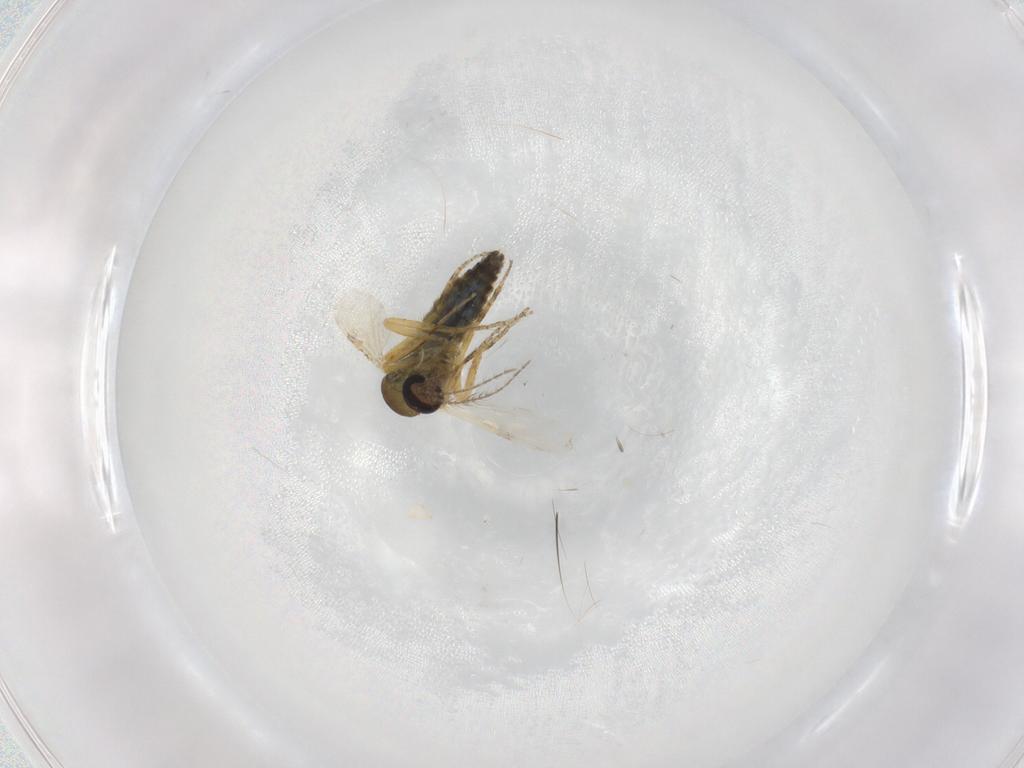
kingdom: Animalia
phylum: Arthropoda
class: Insecta
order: Diptera
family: Ceratopogonidae
